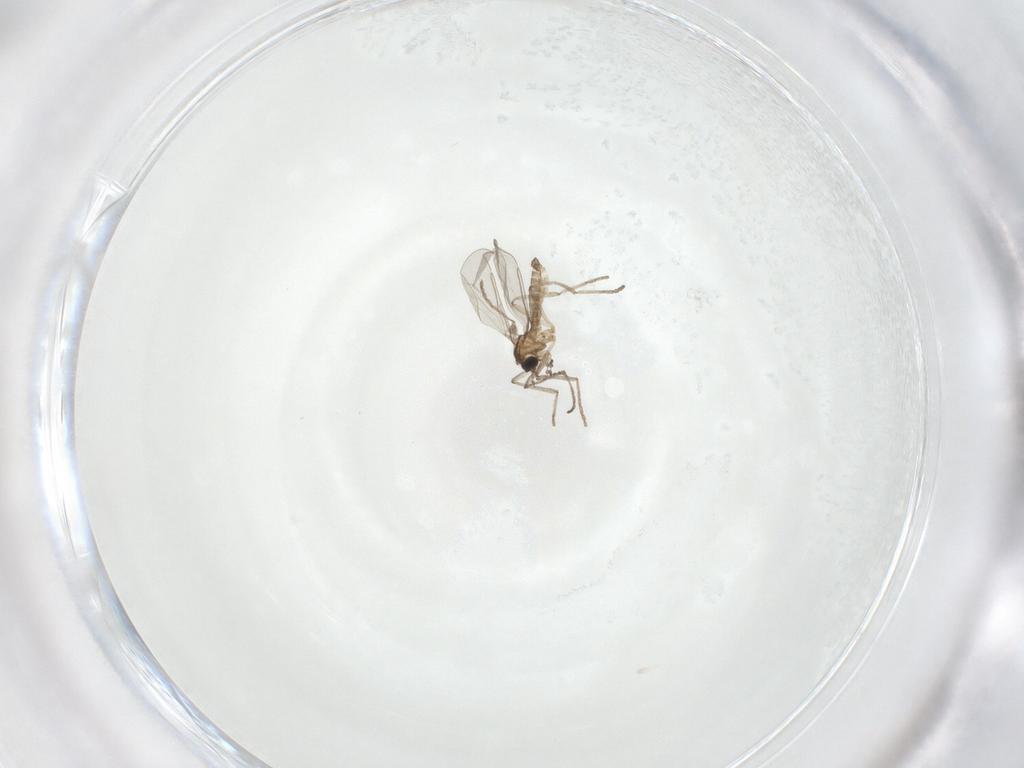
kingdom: Animalia
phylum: Arthropoda
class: Insecta
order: Diptera
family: Cecidomyiidae
